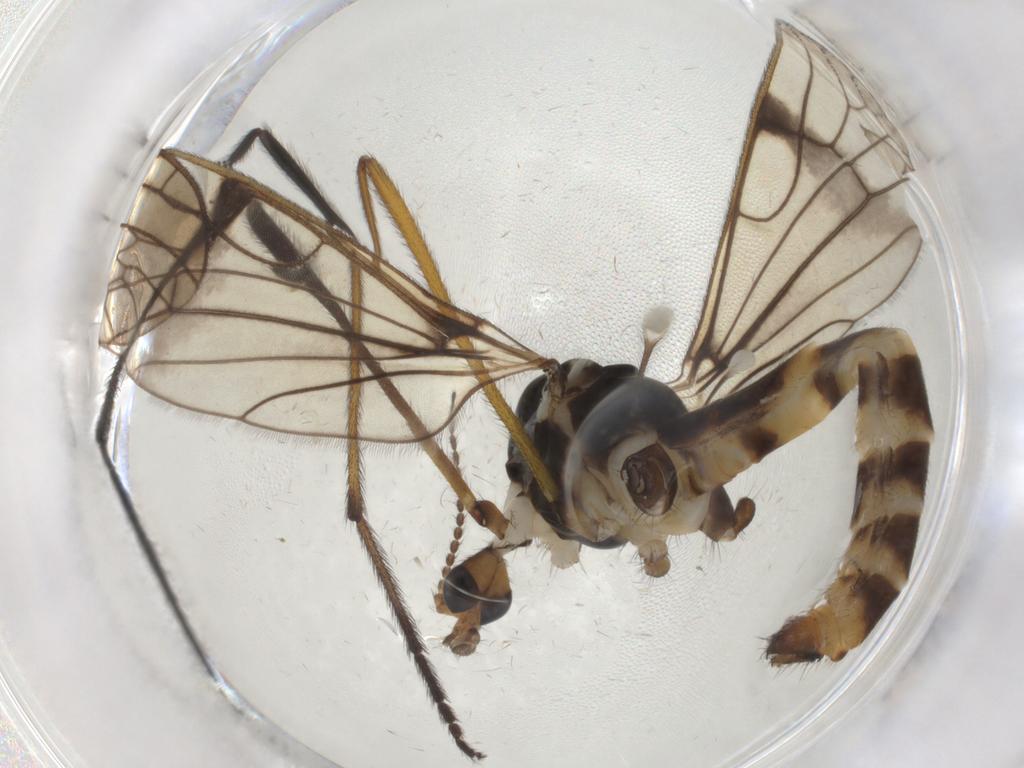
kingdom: Animalia
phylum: Arthropoda
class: Insecta
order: Diptera
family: Limoniidae
